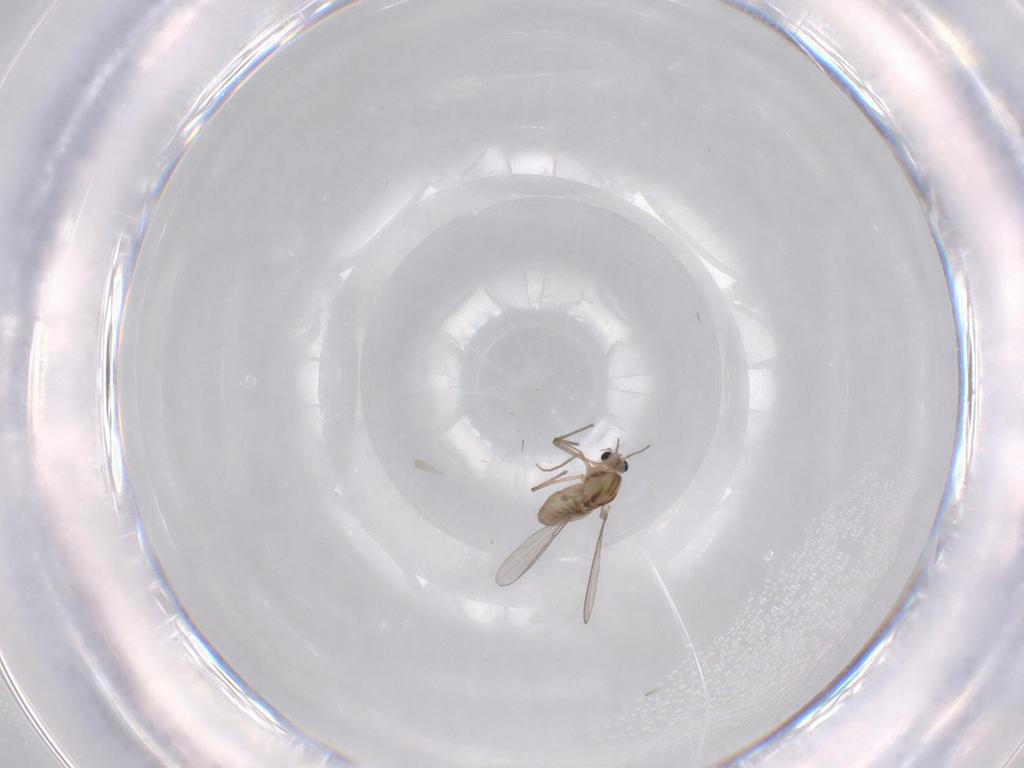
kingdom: Animalia
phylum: Arthropoda
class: Insecta
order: Diptera
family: Chironomidae
